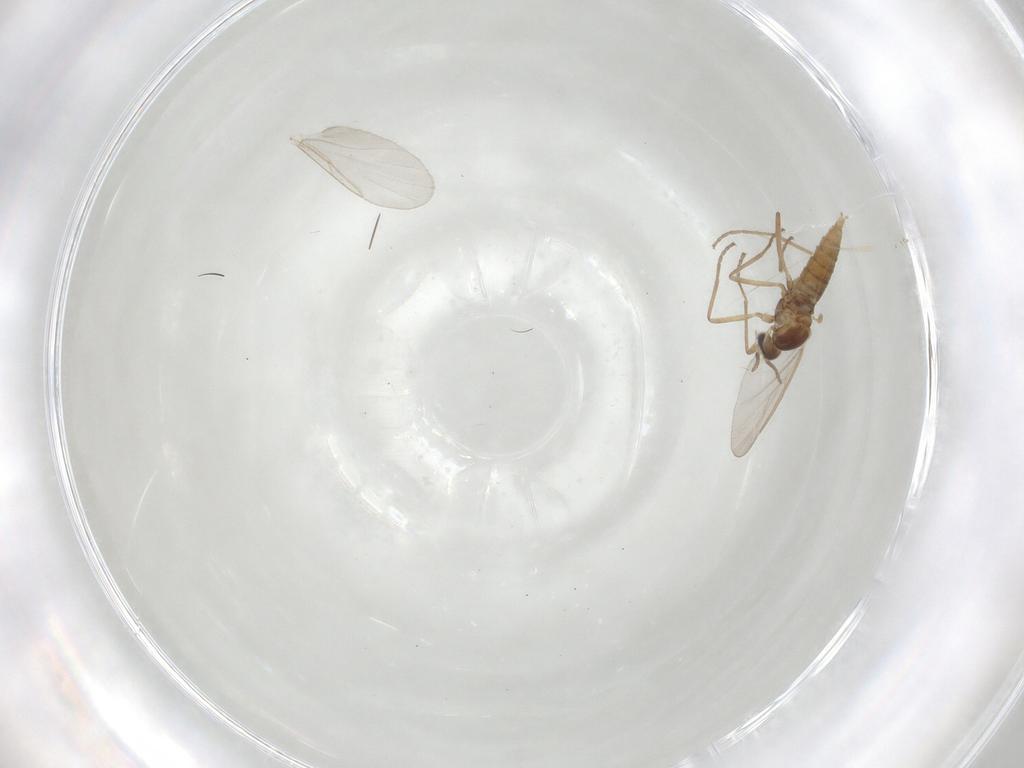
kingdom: Animalia
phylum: Arthropoda
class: Insecta
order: Diptera
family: Cecidomyiidae
